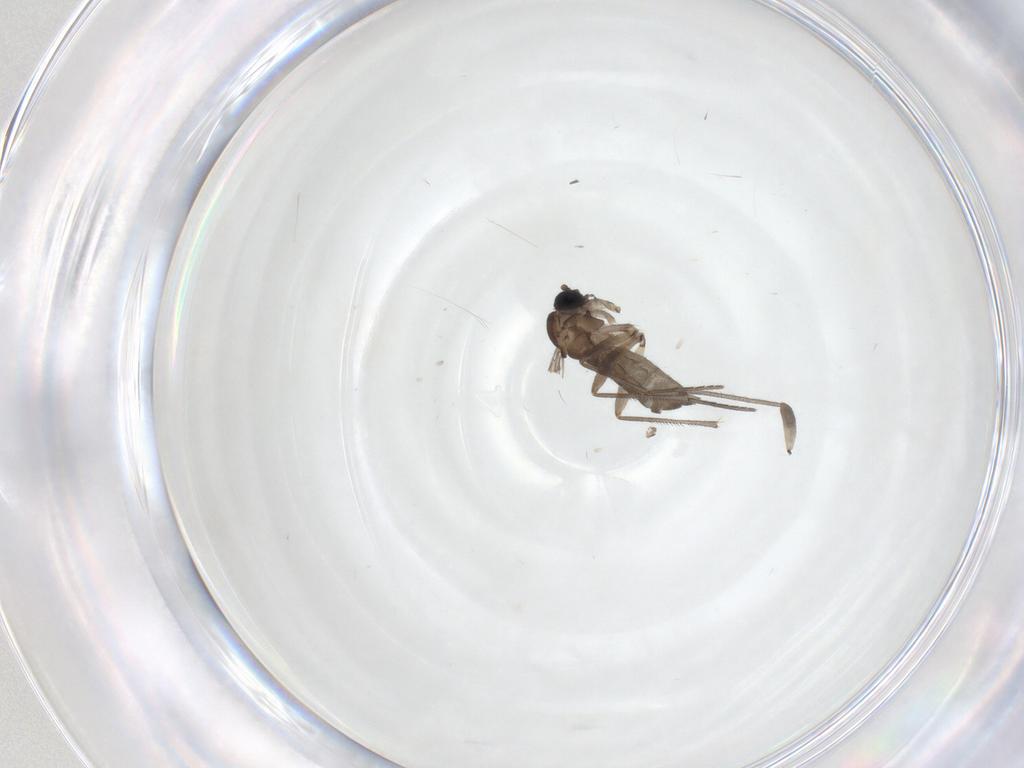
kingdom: Animalia
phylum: Arthropoda
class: Insecta
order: Diptera
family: Sciaridae
